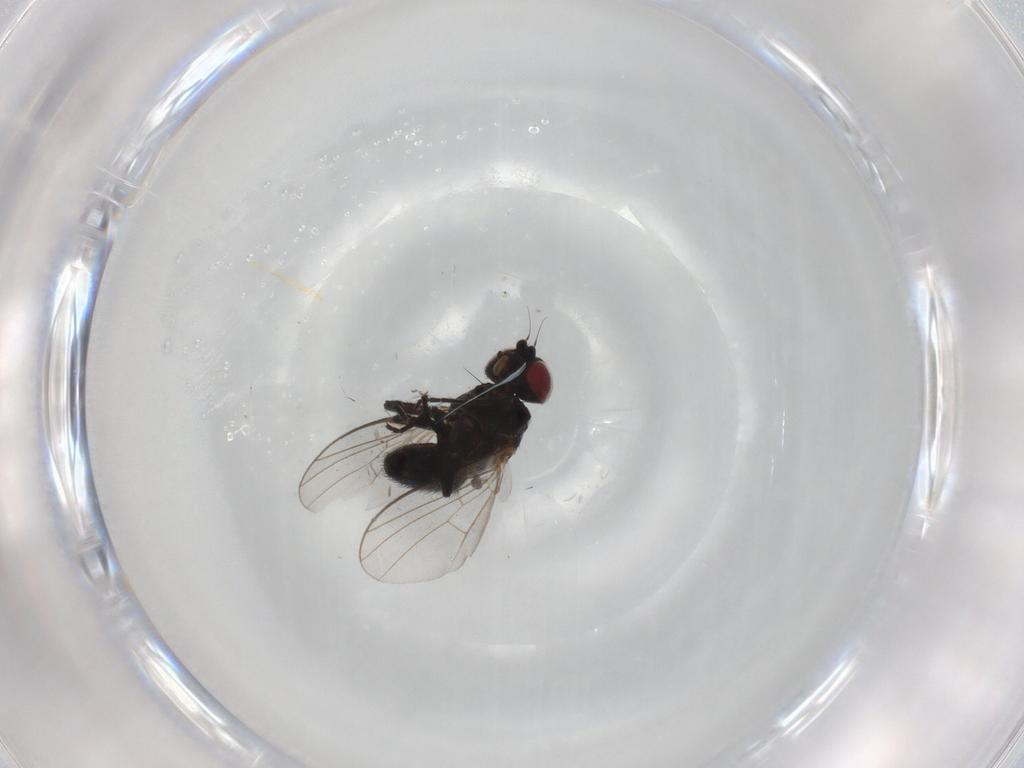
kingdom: Animalia
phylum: Arthropoda
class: Insecta
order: Diptera
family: Agromyzidae
